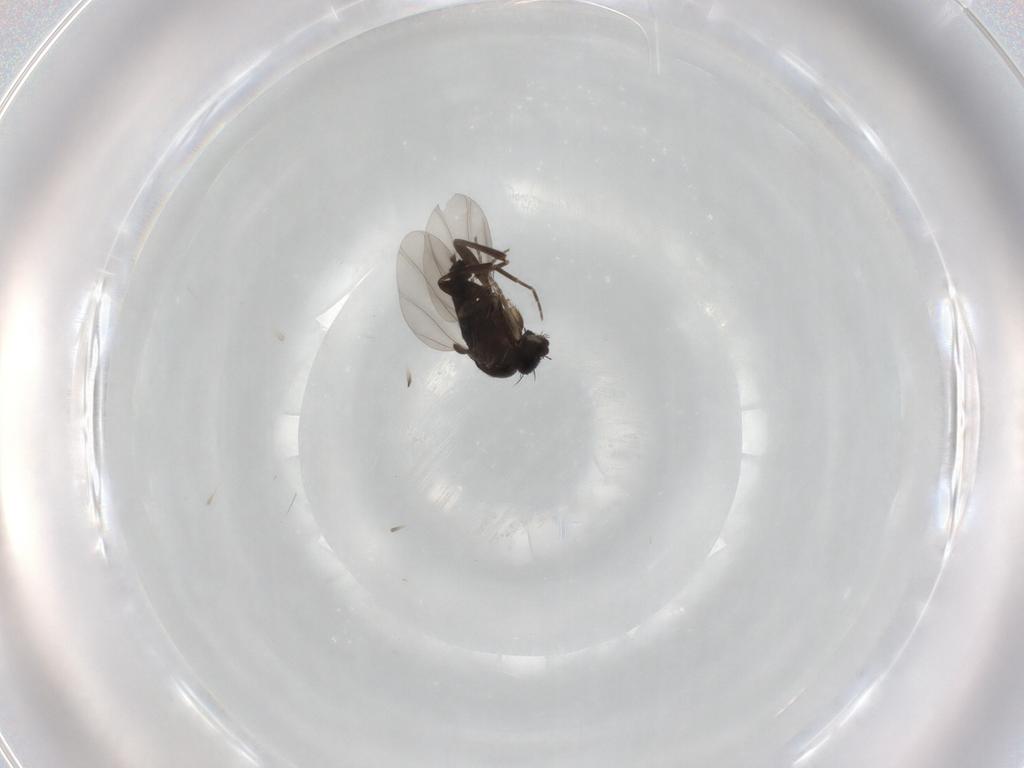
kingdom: Animalia
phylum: Arthropoda
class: Insecta
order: Diptera
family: Phoridae
